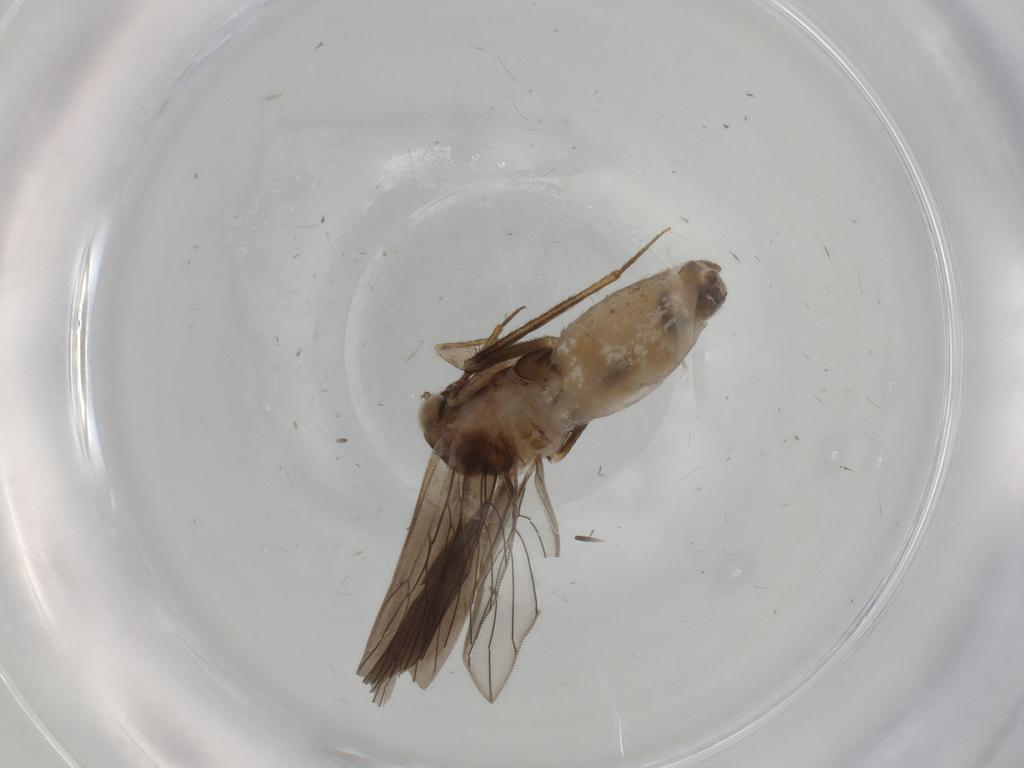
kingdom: Animalia
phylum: Arthropoda
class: Insecta
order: Psocodea
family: Lepidopsocidae
